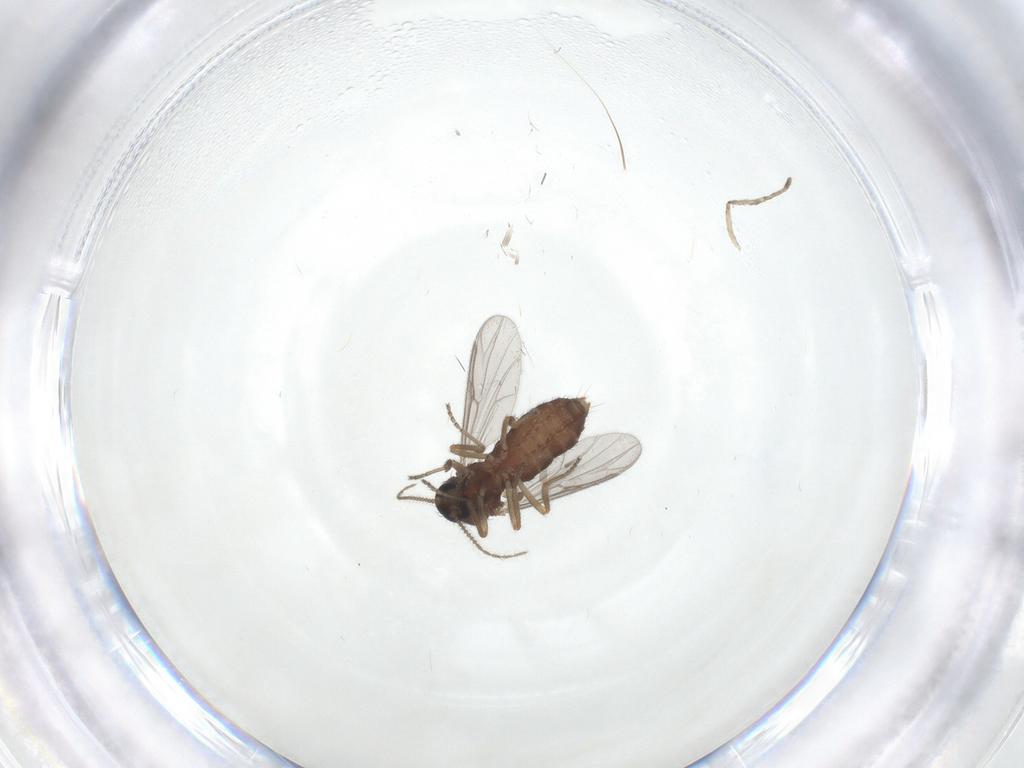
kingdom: Animalia
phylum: Arthropoda
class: Insecta
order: Diptera
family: Ceratopogonidae
